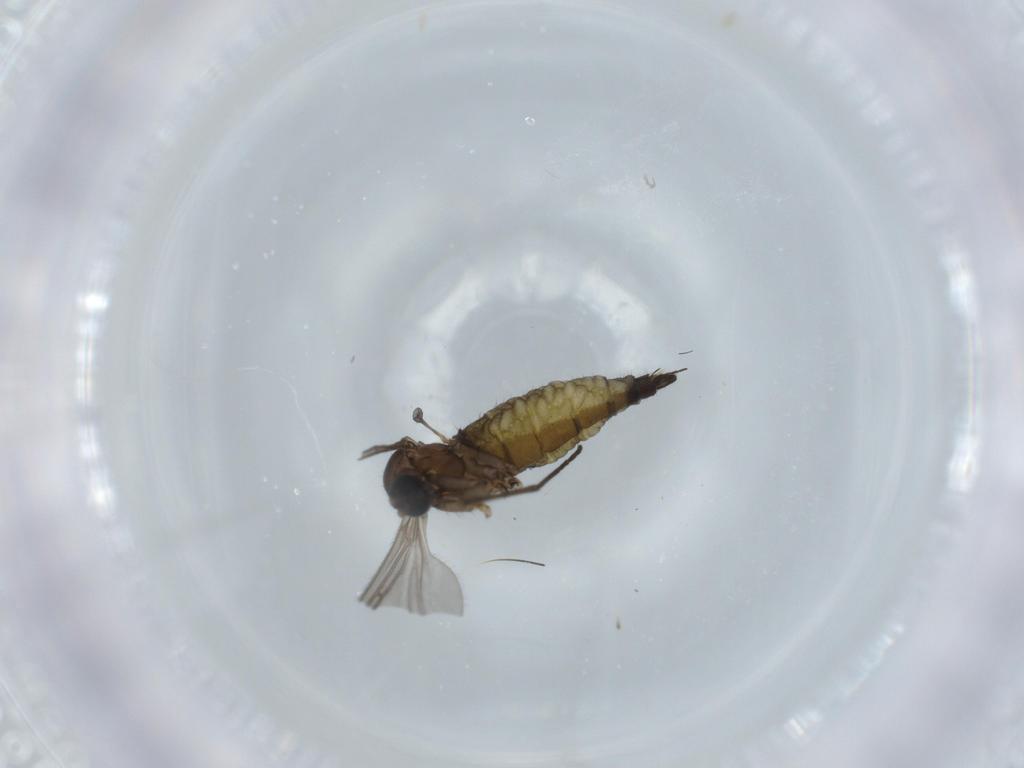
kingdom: Animalia
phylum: Arthropoda
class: Insecta
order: Diptera
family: Sciaridae
